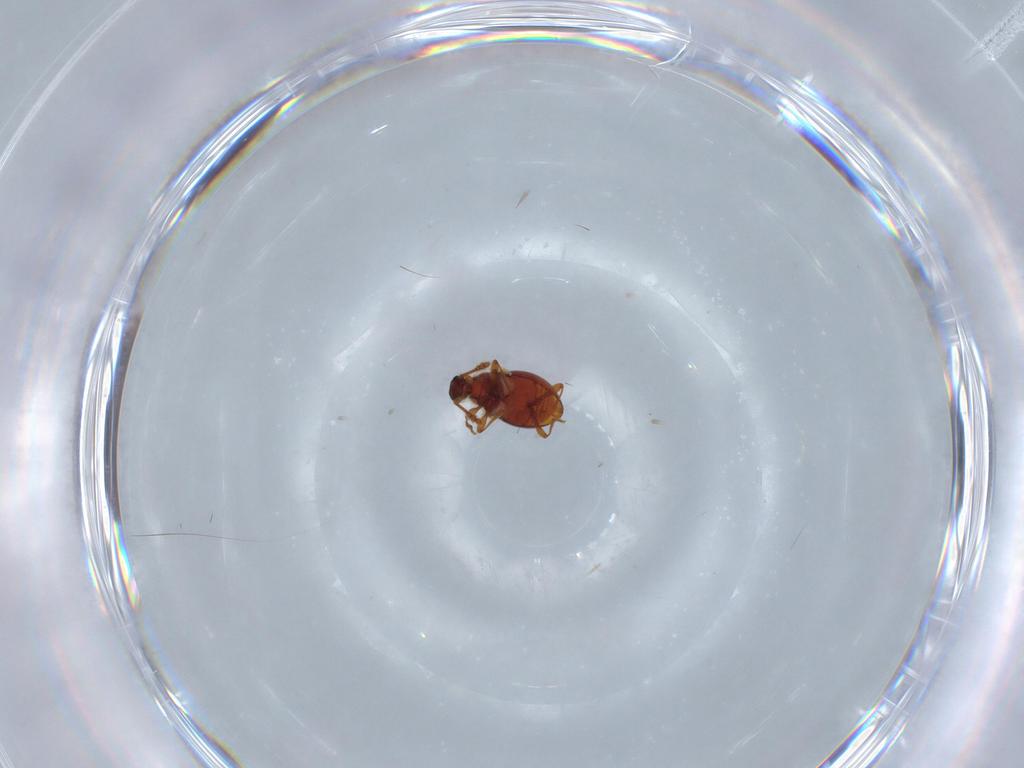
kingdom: Animalia
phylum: Arthropoda
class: Insecta
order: Coleoptera
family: Staphylinidae
